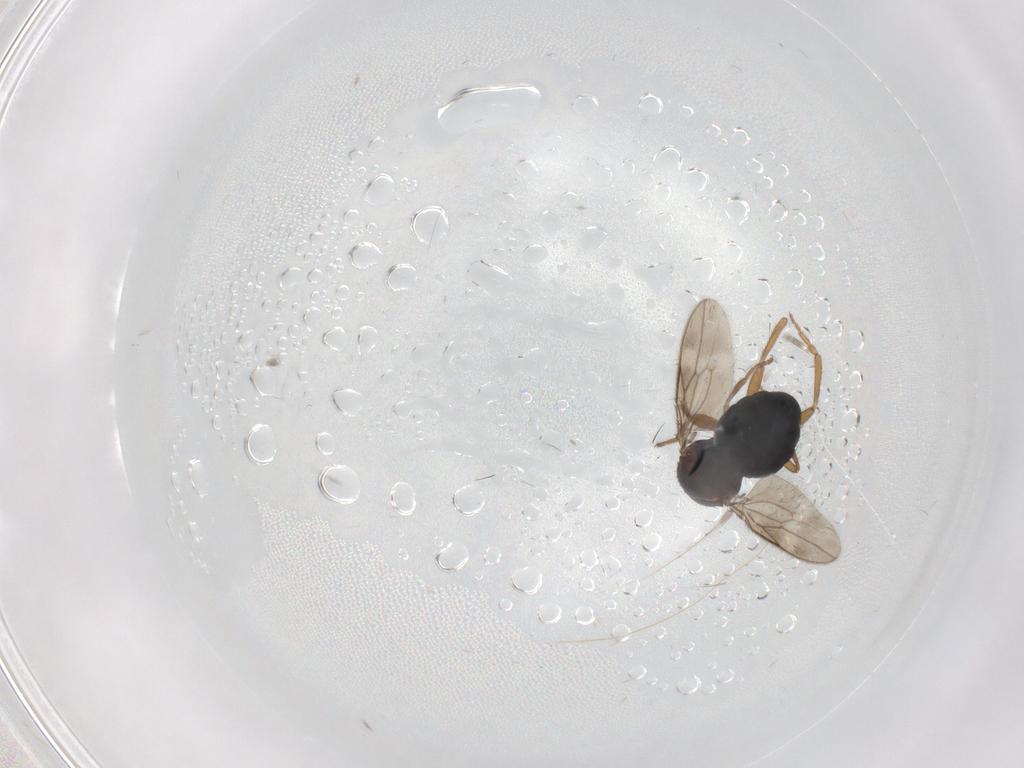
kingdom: Animalia
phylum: Arthropoda
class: Insecta
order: Diptera
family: Sphaeroceridae
